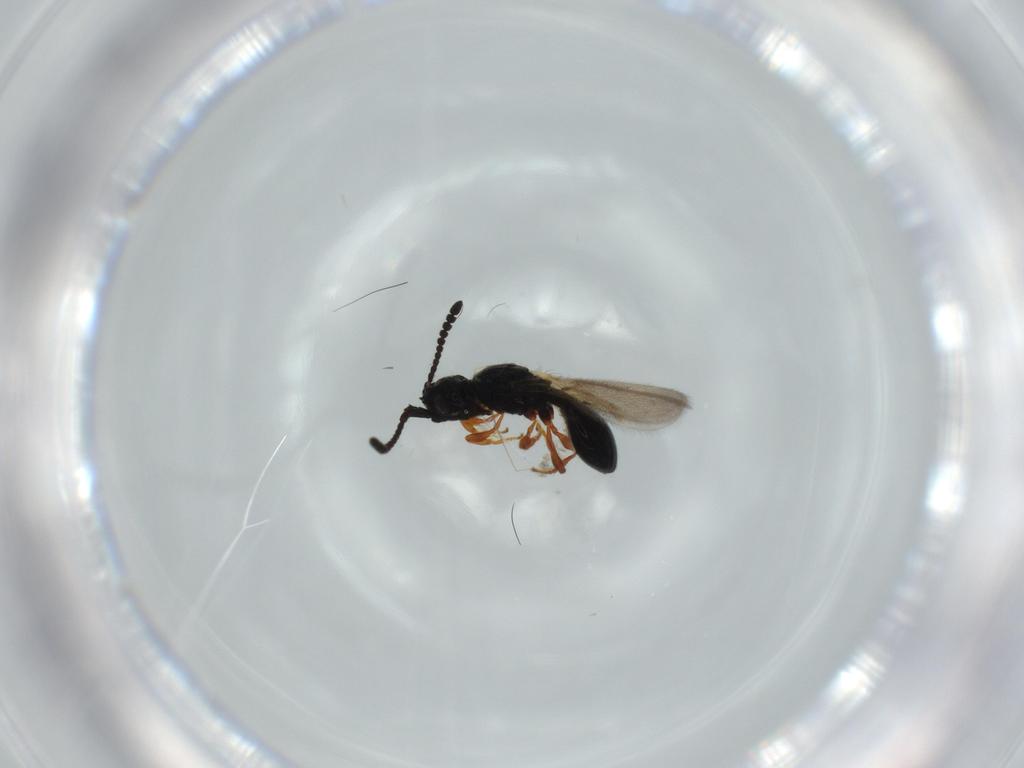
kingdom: Animalia
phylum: Arthropoda
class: Insecta
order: Hymenoptera
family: Diapriidae
